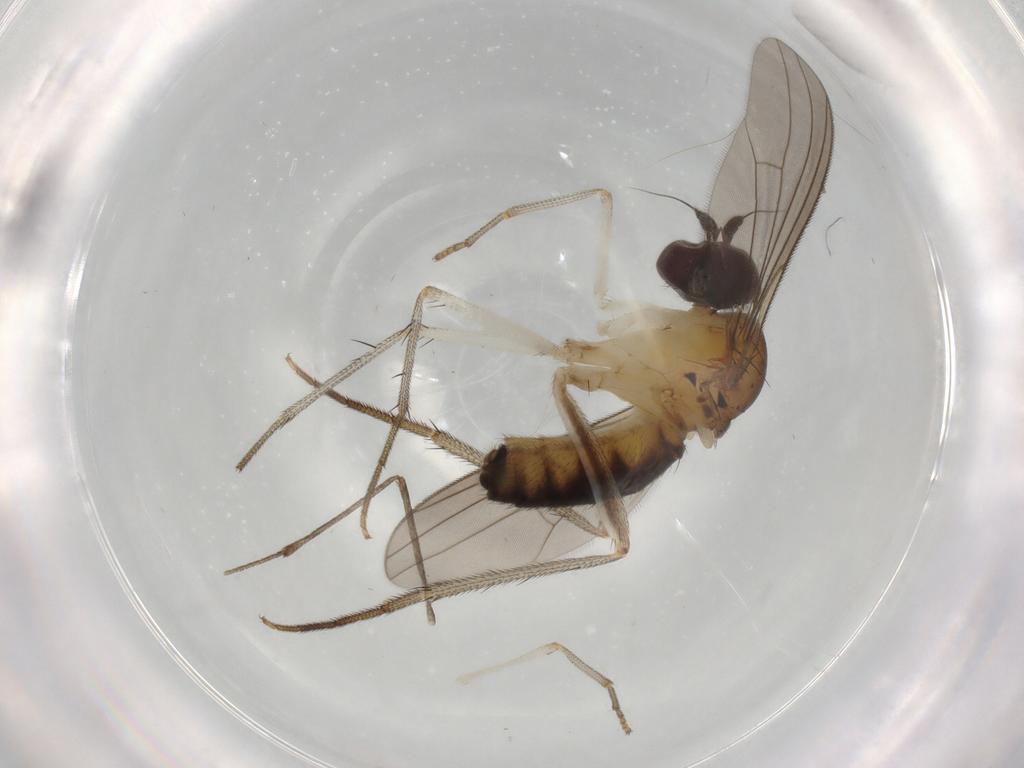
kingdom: Animalia
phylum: Arthropoda
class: Insecta
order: Diptera
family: Dolichopodidae
